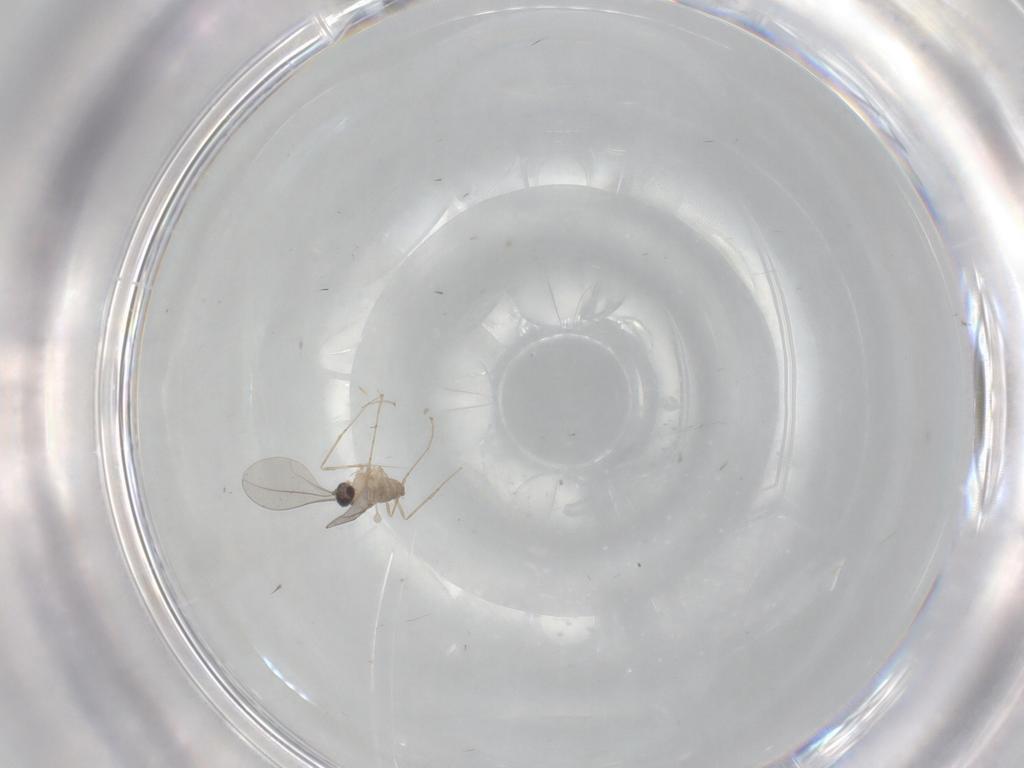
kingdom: Animalia
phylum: Arthropoda
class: Insecta
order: Diptera
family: Cecidomyiidae
